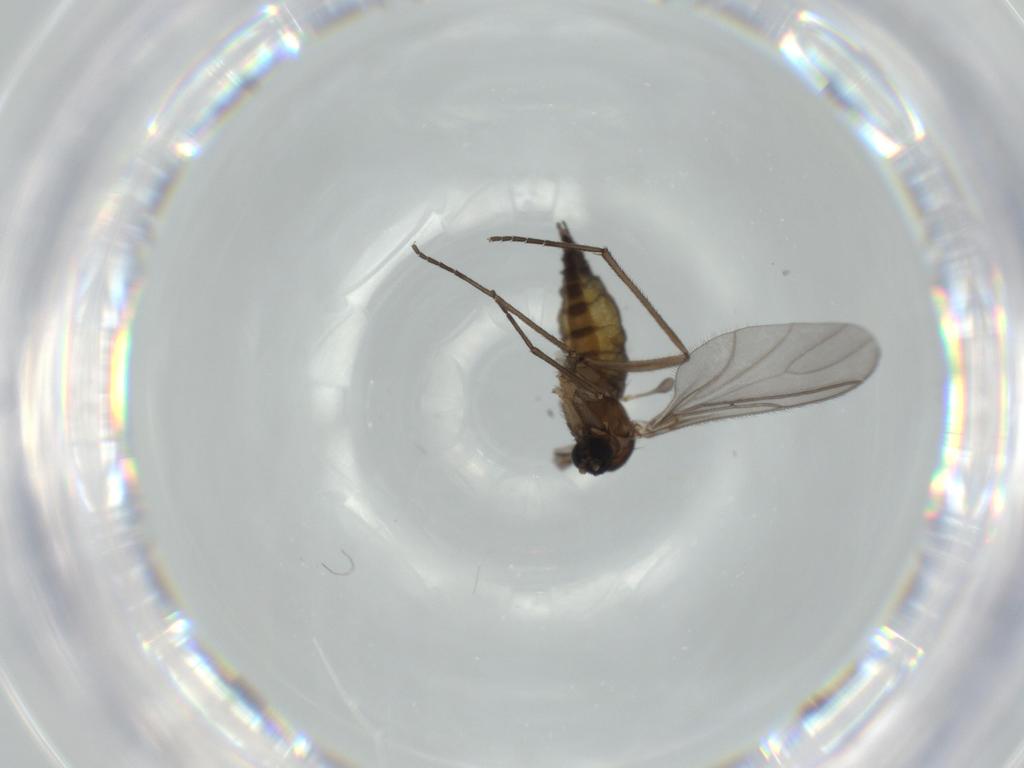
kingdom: Animalia
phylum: Arthropoda
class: Insecta
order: Diptera
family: Sciaridae
